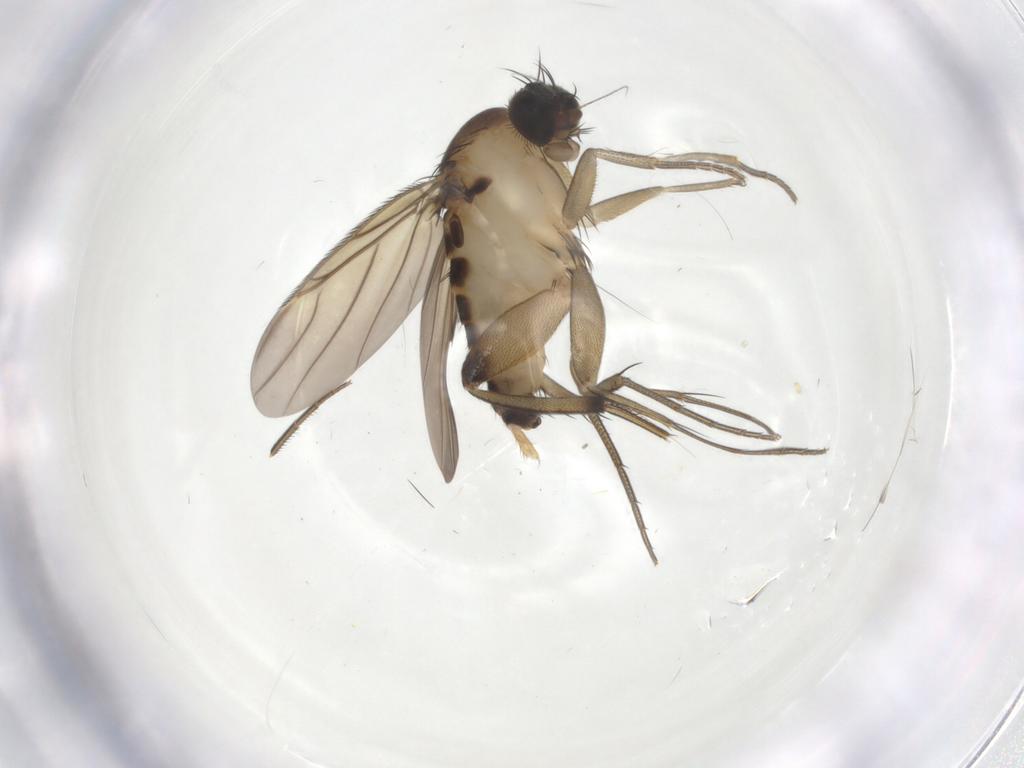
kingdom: Animalia
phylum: Arthropoda
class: Insecta
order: Diptera
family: Phoridae
